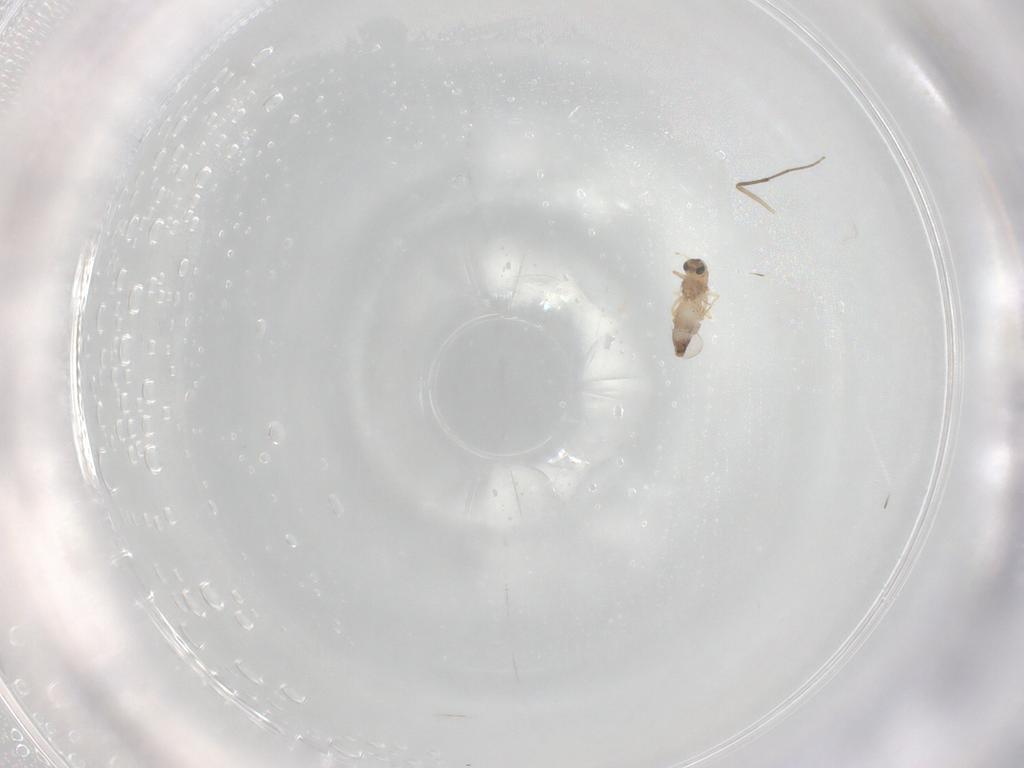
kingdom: Animalia
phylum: Arthropoda
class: Insecta
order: Diptera
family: Chironomidae
